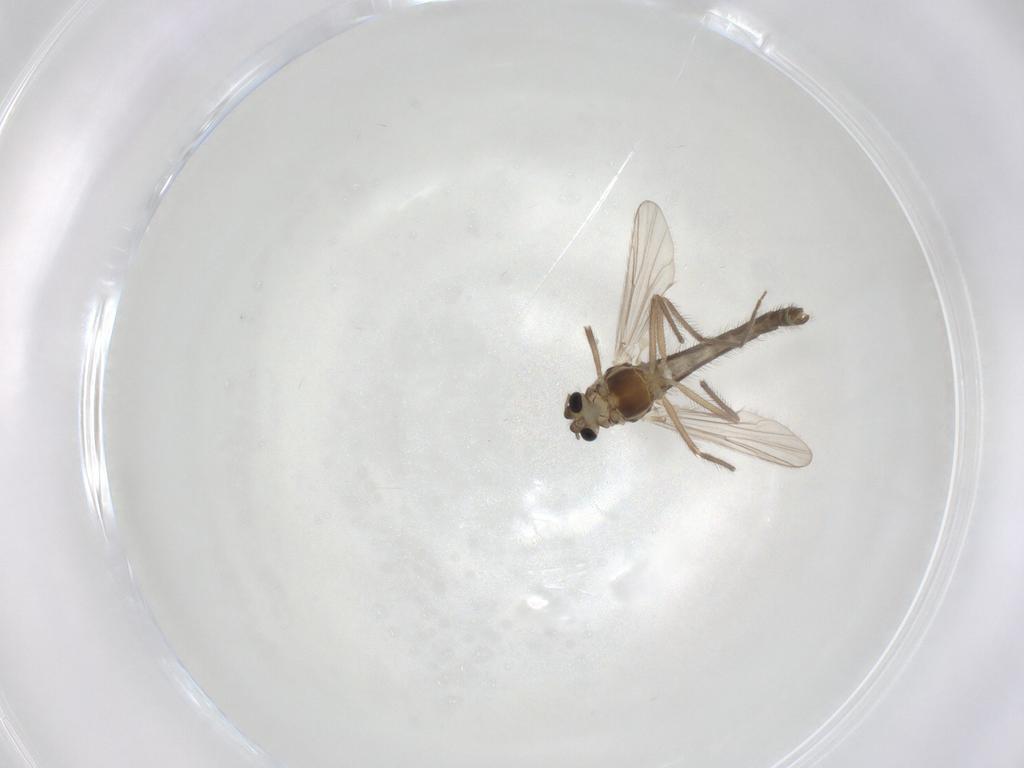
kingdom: Animalia
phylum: Arthropoda
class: Insecta
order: Diptera
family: Chironomidae
